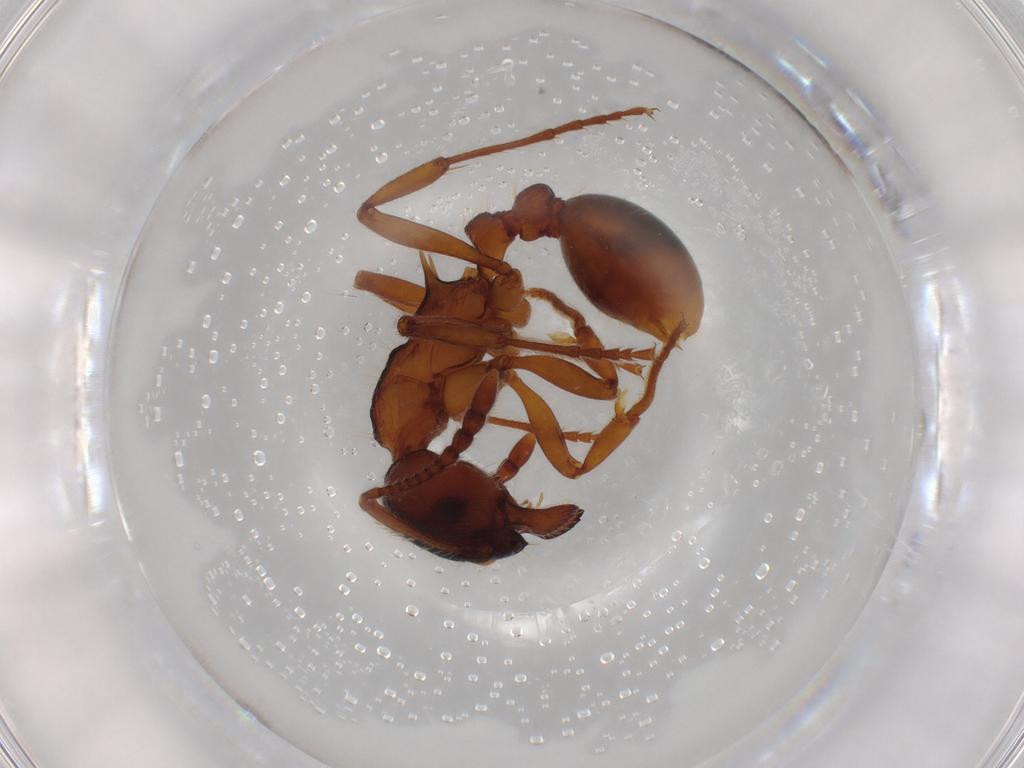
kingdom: Animalia
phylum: Arthropoda
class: Insecta
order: Hymenoptera
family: Formicidae
